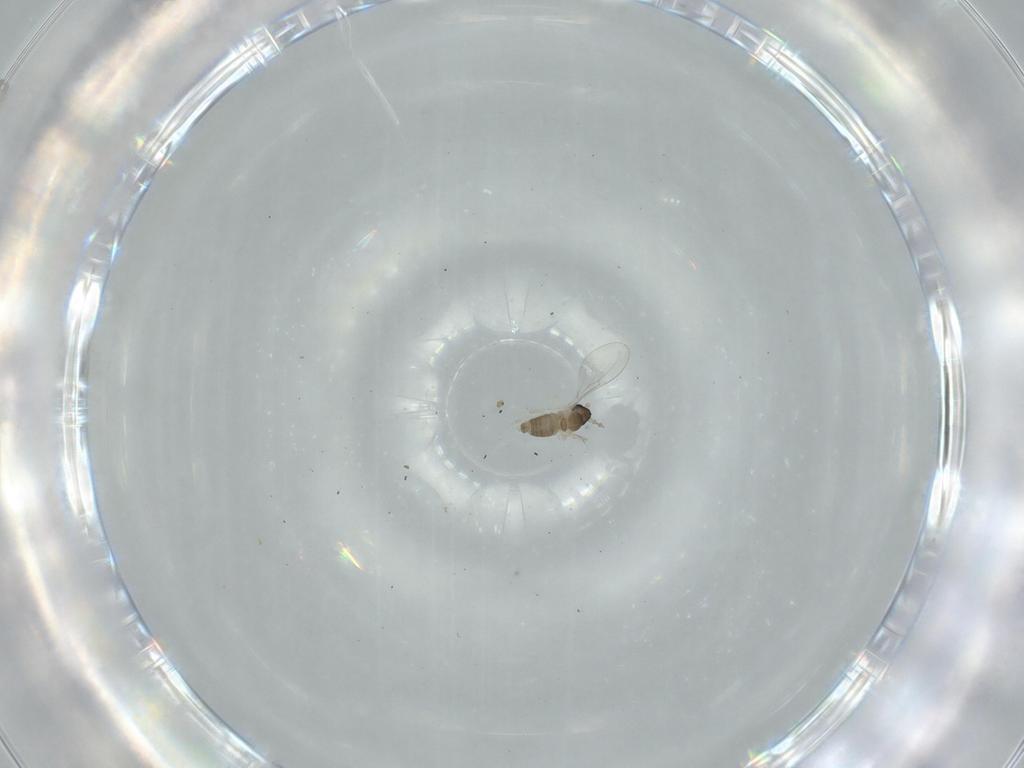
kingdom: Animalia
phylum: Arthropoda
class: Insecta
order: Diptera
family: Drosophilidae
